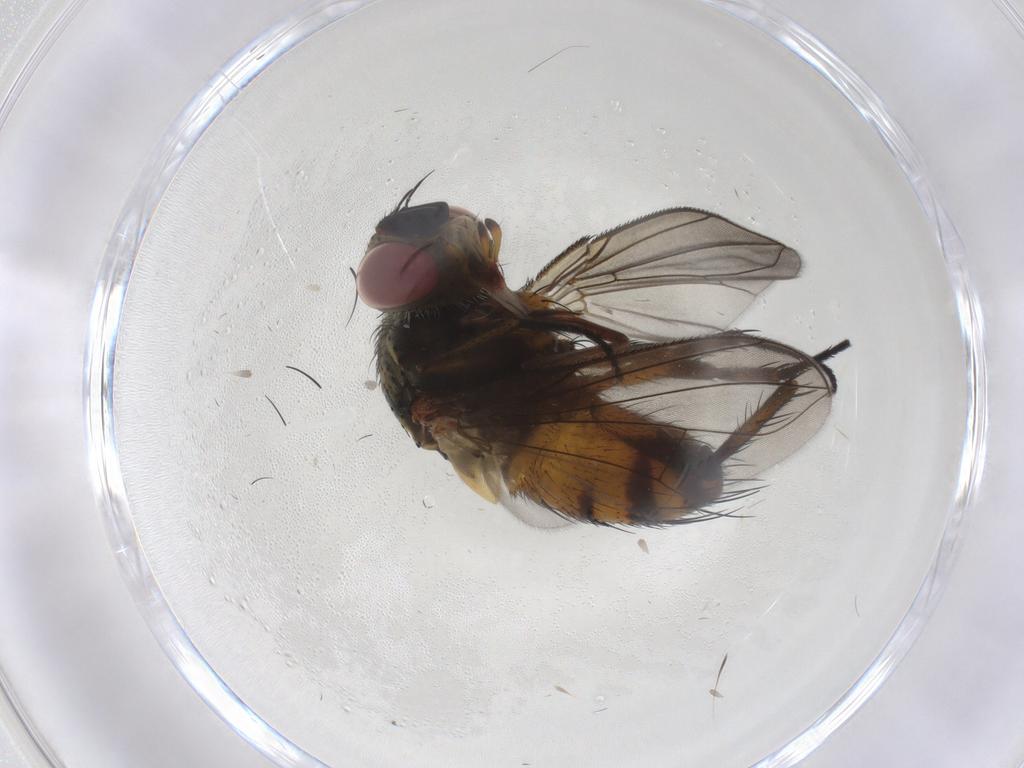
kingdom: Animalia
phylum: Arthropoda
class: Insecta
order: Diptera
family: Tachinidae
